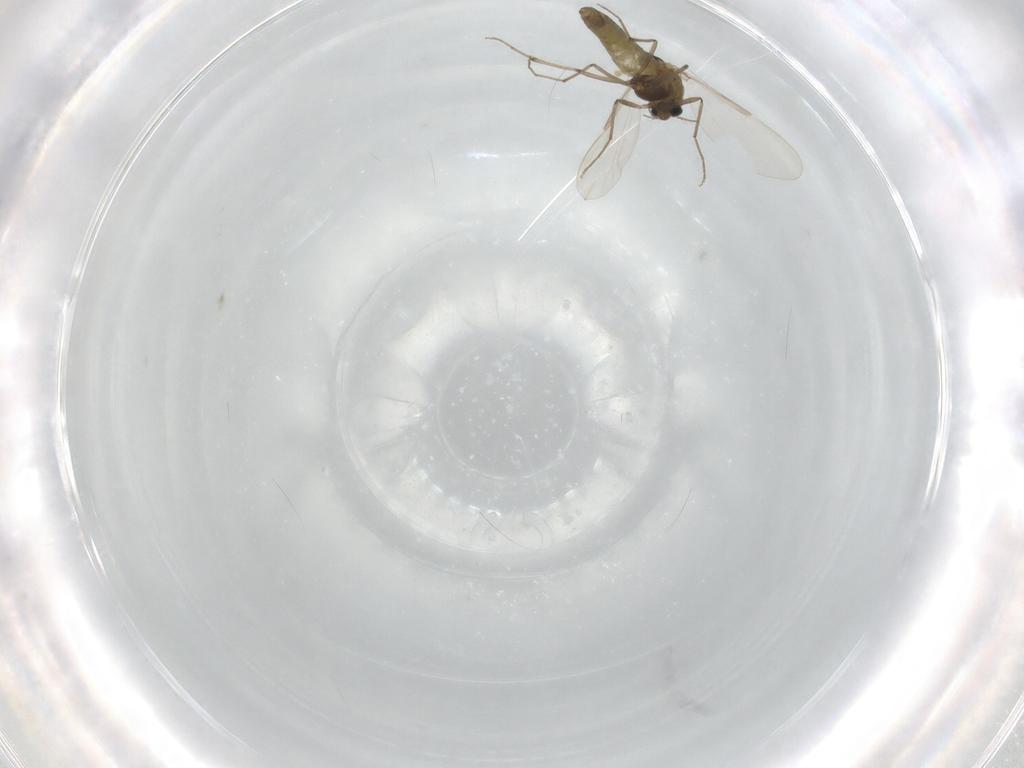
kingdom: Animalia
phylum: Arthropoda
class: Insecta
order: Diptera
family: Chironomidae
